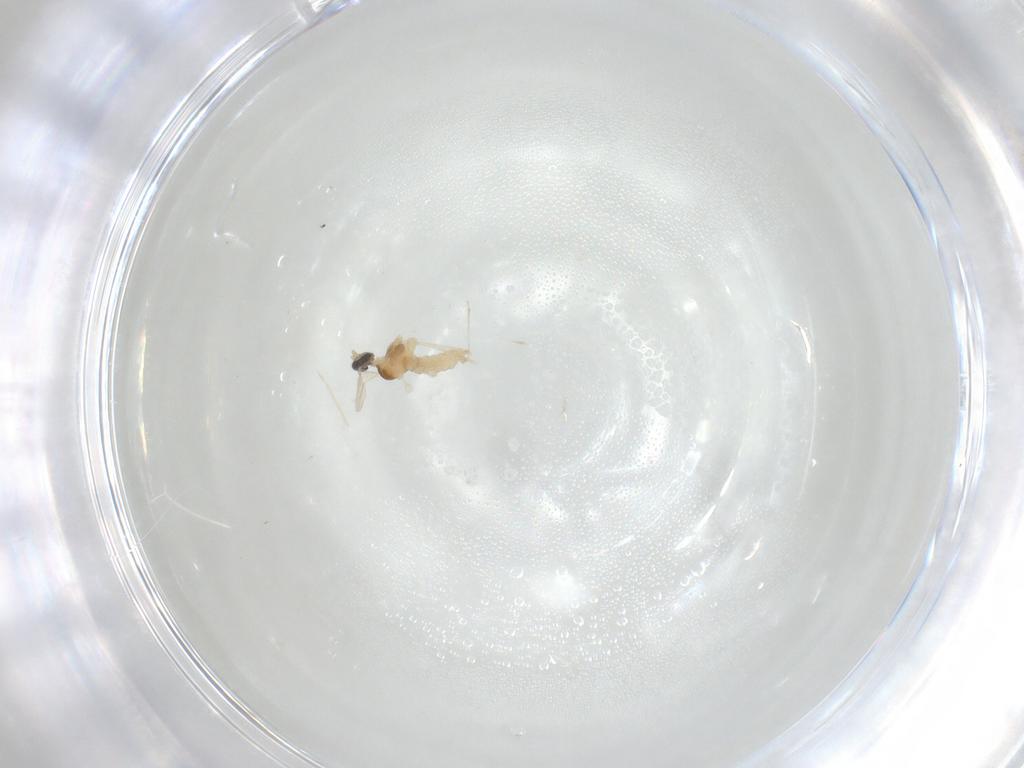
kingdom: Animalia
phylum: Arthropoda
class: Insecta
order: Diptera
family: Cecidomyiidae
